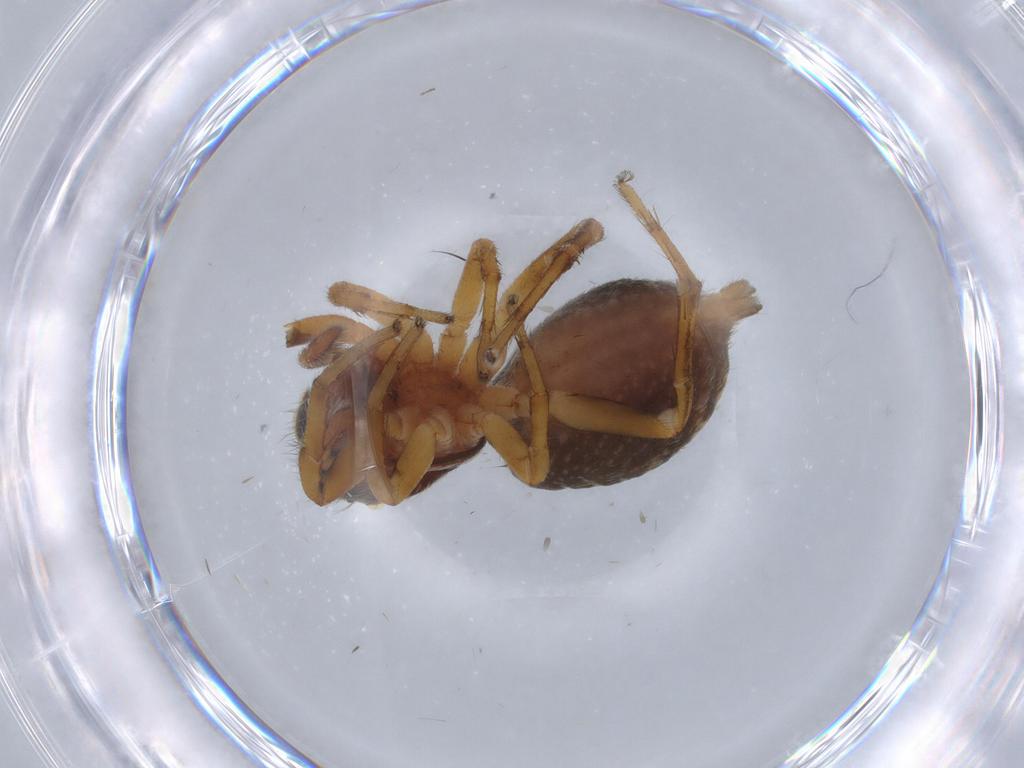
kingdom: Animalia
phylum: Arthropoda
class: Arachnida
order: Araneae
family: Salticidae
